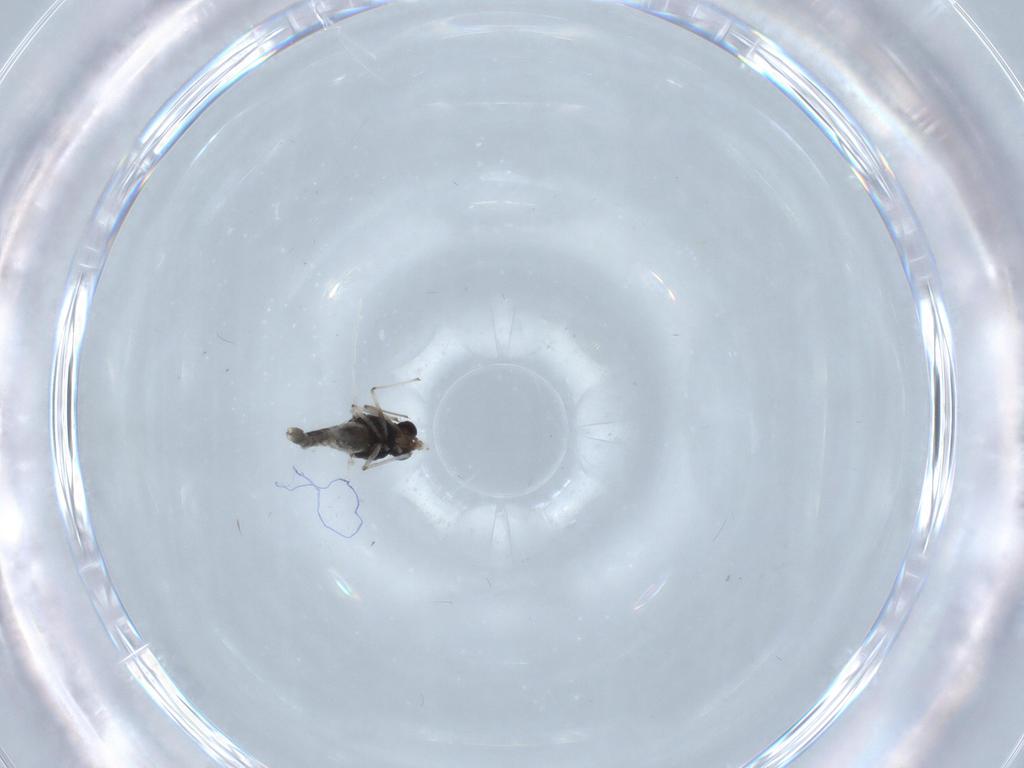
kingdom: Animalia
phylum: Arthropoda
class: Insecta
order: Diptera
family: Chironomidae
